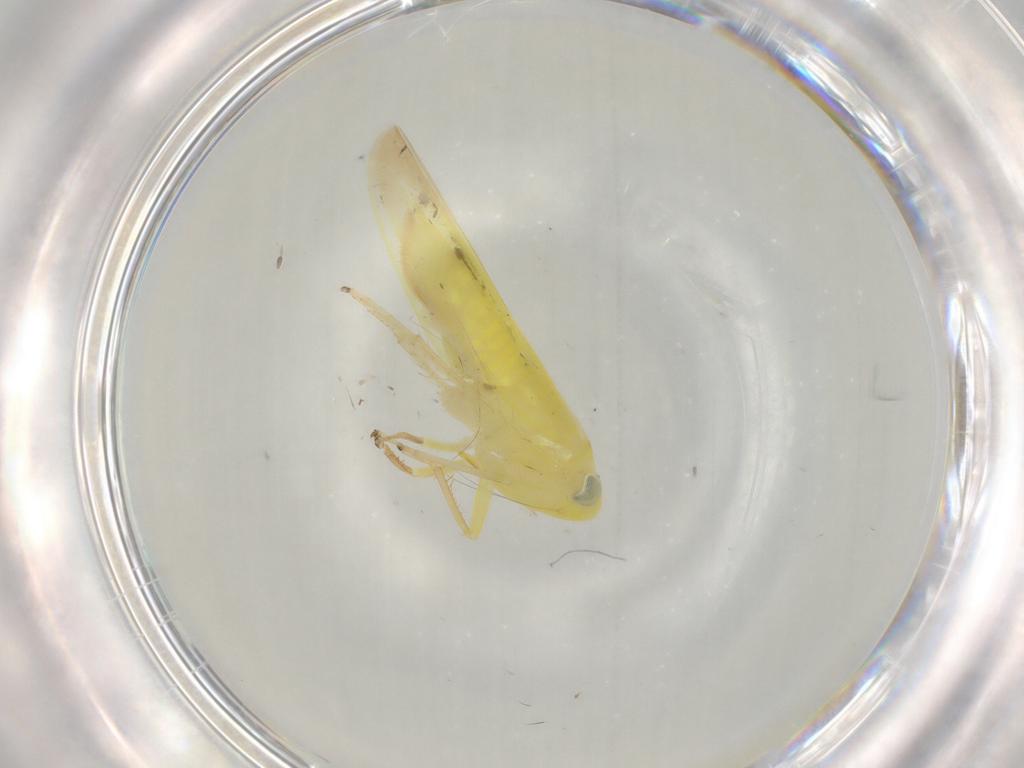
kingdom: Animalia
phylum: Arthropoda
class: Insecta
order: Hemiptera
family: Cicadellidae
